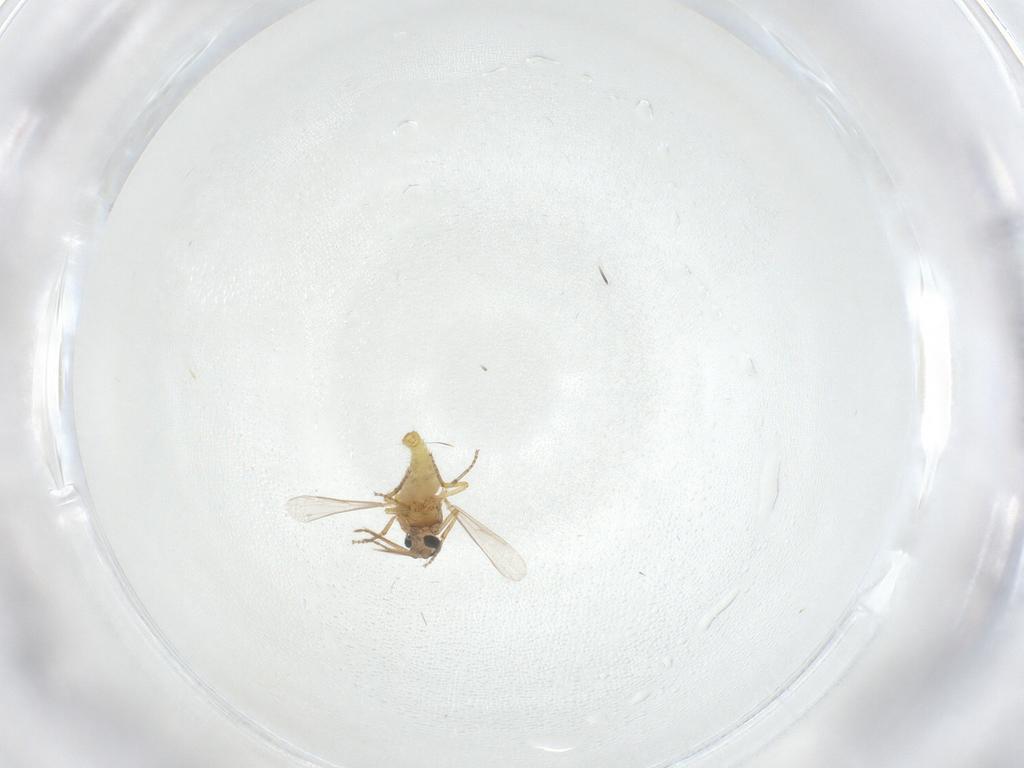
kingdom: Animalia
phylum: Arthropoda
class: Insecta
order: Diptera
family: Ceratopogonidae
